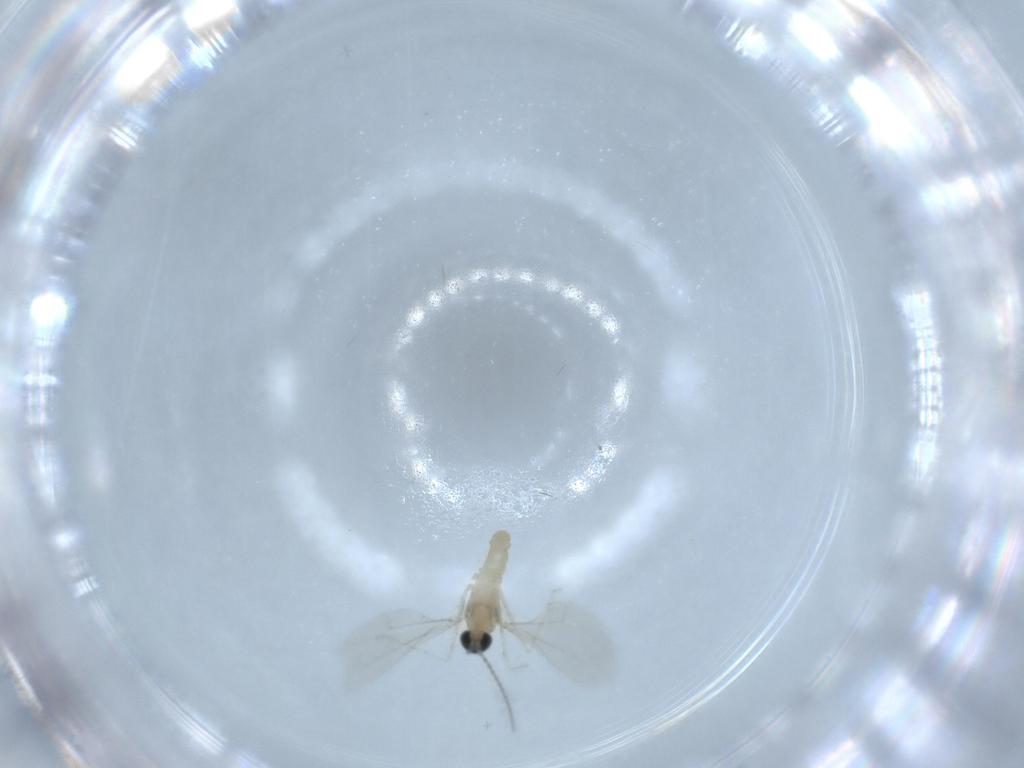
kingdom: Animalia
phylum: Arthropoda
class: Insecta
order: Diptera
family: Cecidomyiidae
